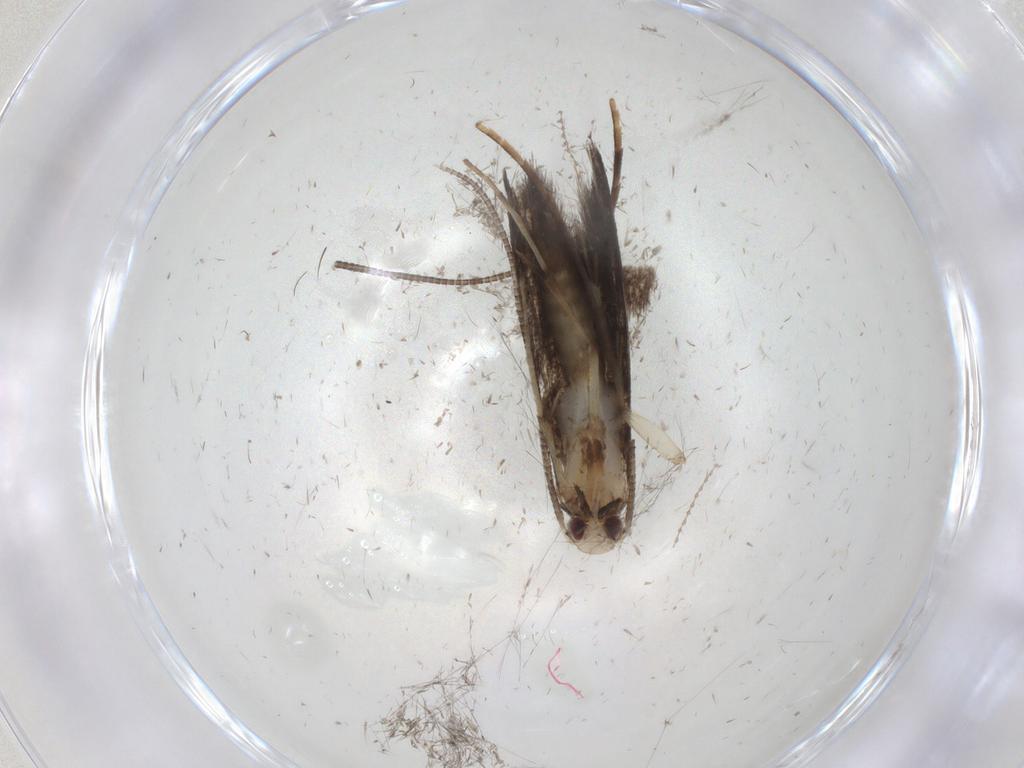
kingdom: Animalia
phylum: Arthropoda
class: Insecta
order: Lepidoptera
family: Gracillariidae
